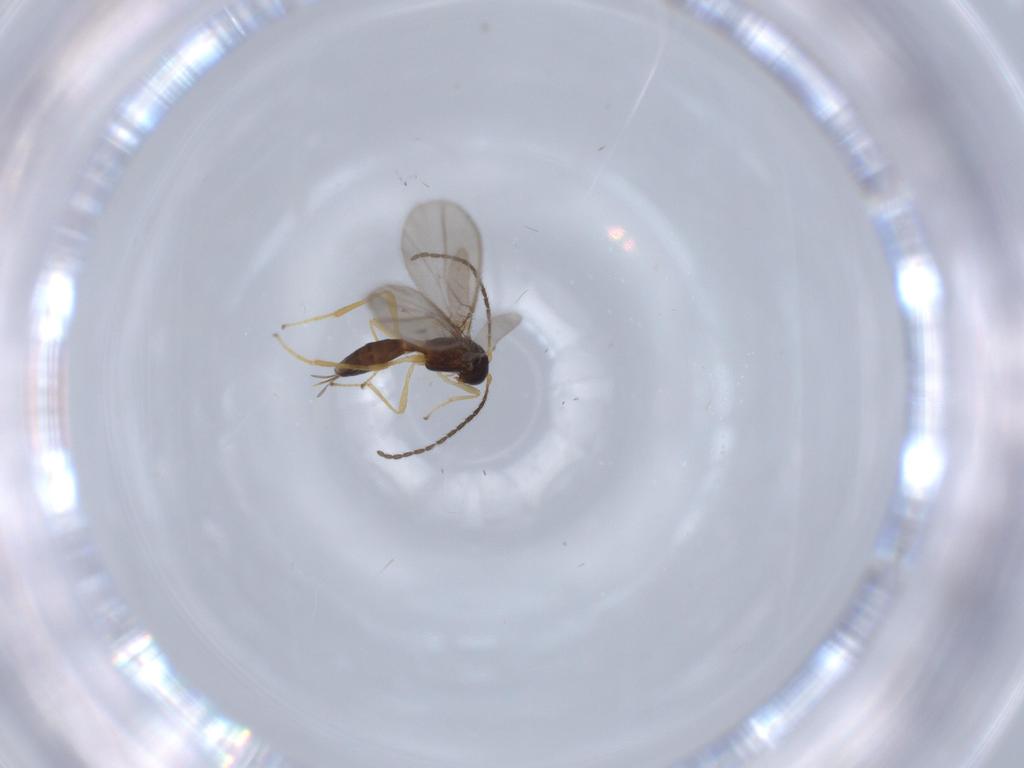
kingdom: Animalia
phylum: Arthropoda
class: Insecta
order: Hymenoptera
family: Braconidae
